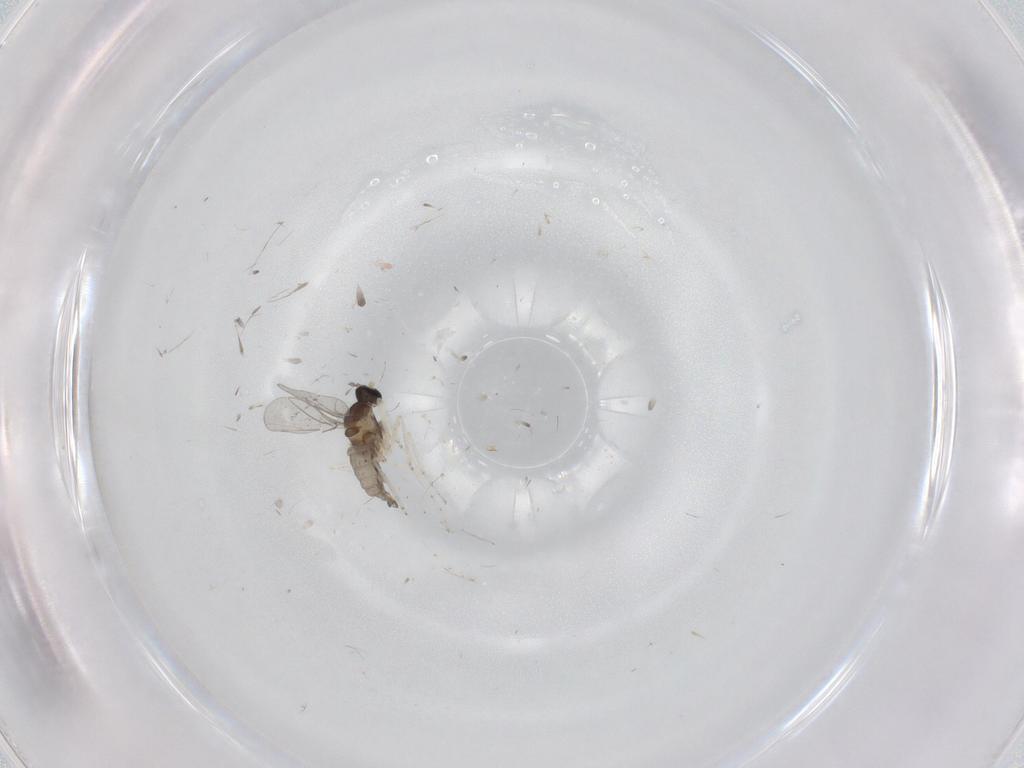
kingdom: Animalia
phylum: Arthropoda
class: Insecta
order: Diptera
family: Cecidomyiidae
